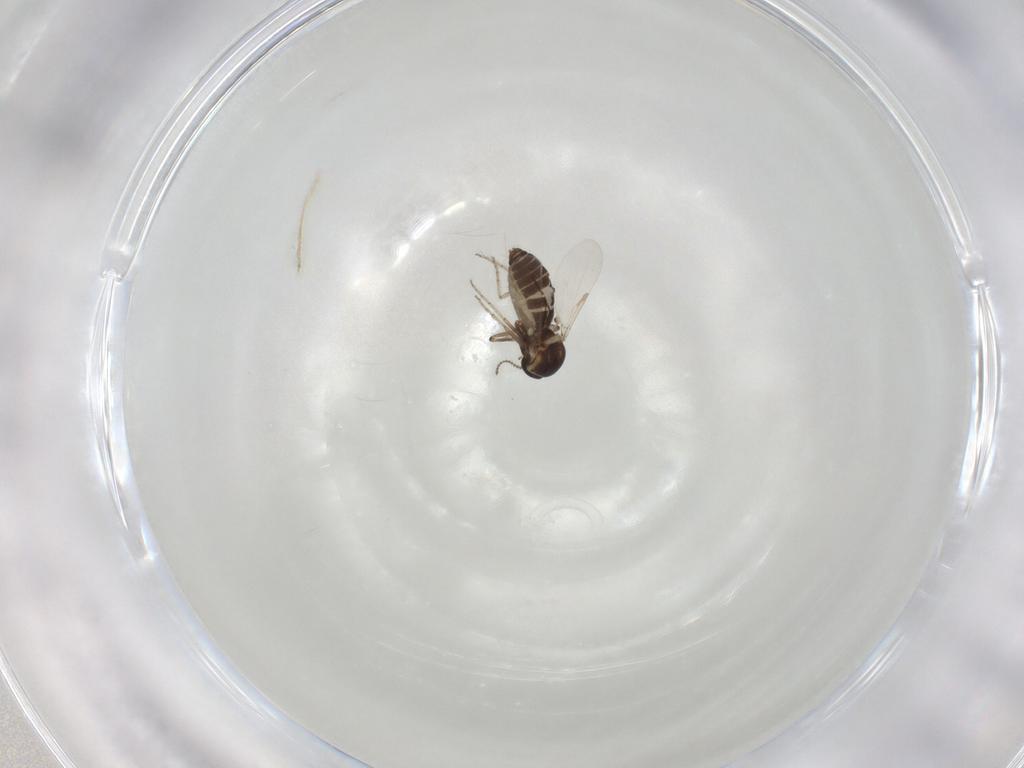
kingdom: Animalia
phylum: Arthropoda
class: Insecta
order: Diptera
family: Ceratopogonidae
